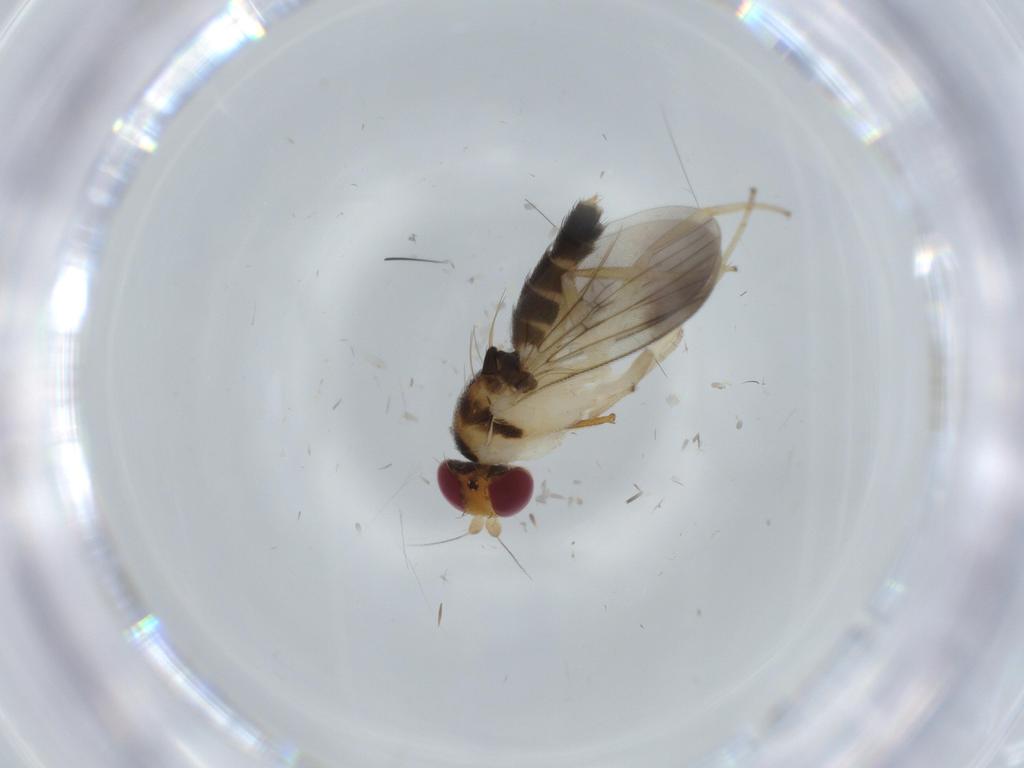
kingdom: Animalia
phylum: Arthropoda
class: Insecta
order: Diptera
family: Clusiidae
